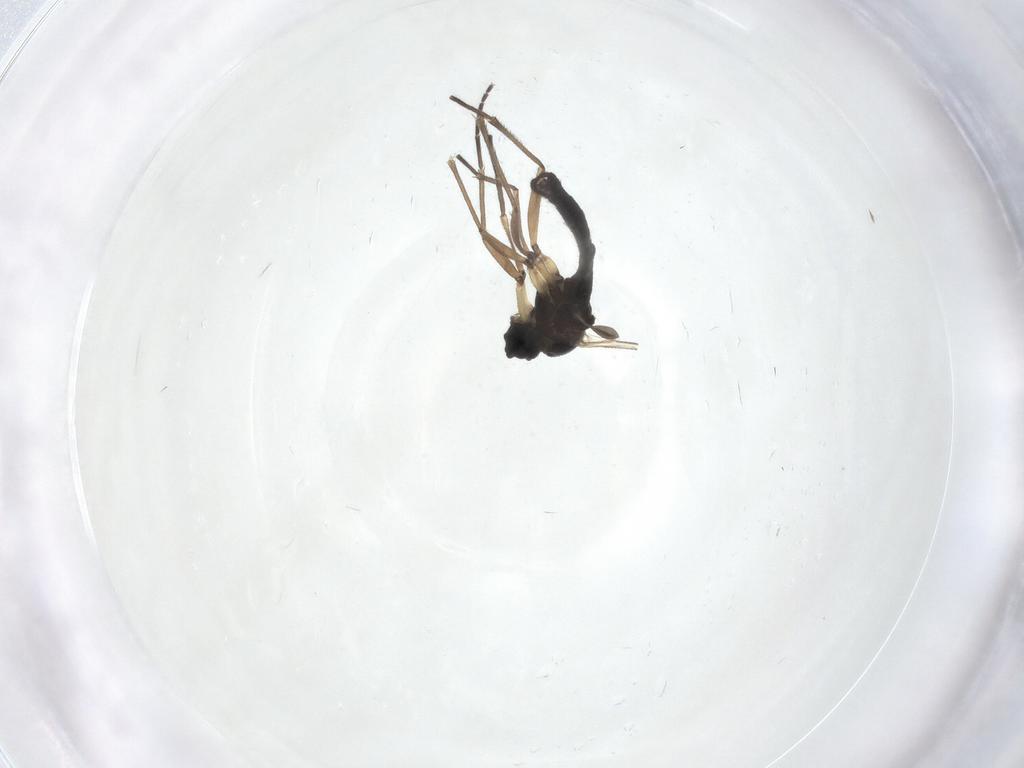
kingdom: Animalia
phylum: Arthropoda
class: Insecta
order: Diptera
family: Sciaridae
